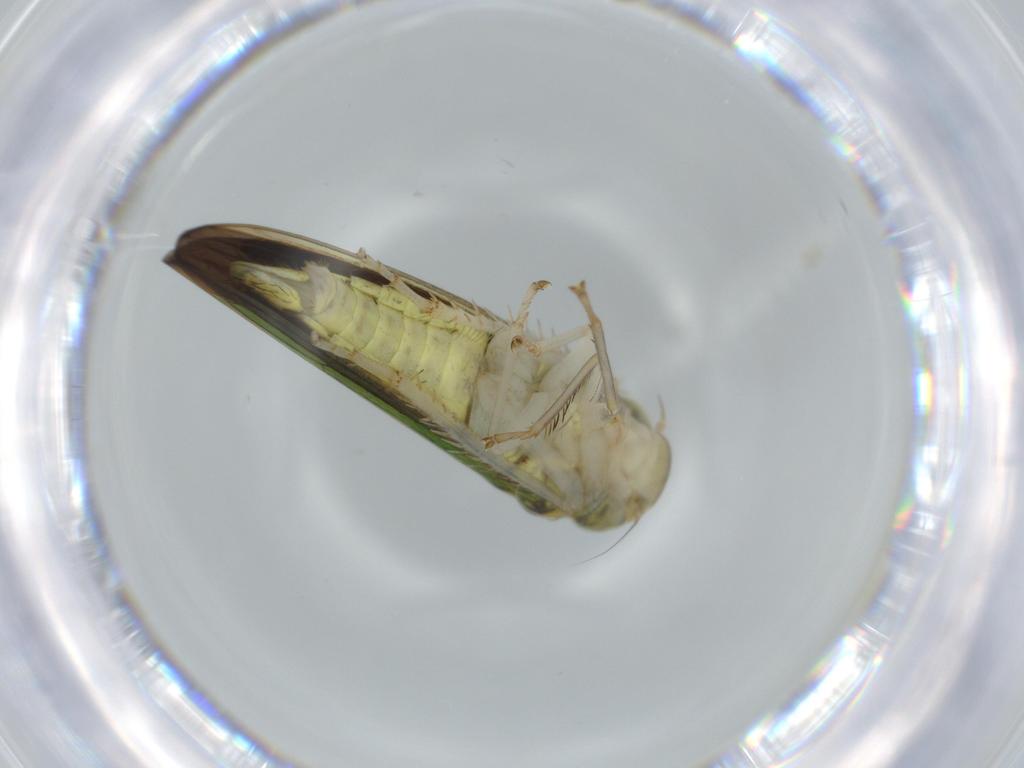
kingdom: Animalia
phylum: Arthropoda
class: Insecta
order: Hemiptera
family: Cicadellidae
